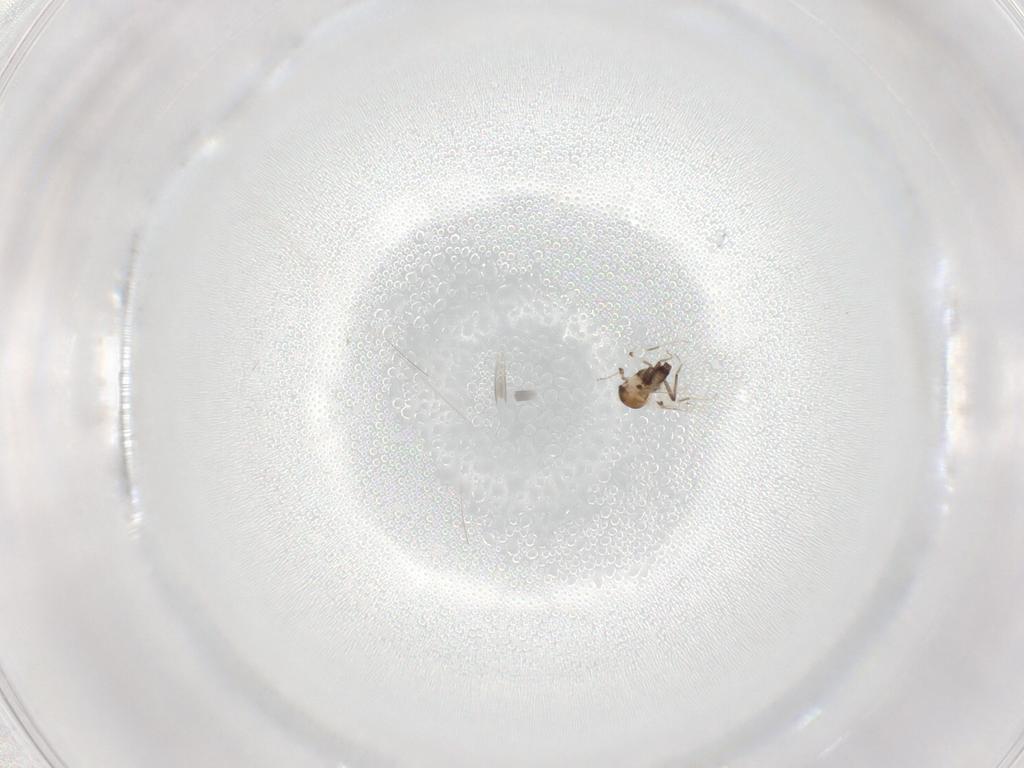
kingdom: Animalia
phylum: Arthropoda
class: Insecta
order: Diptera
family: Ceratopogonidae
